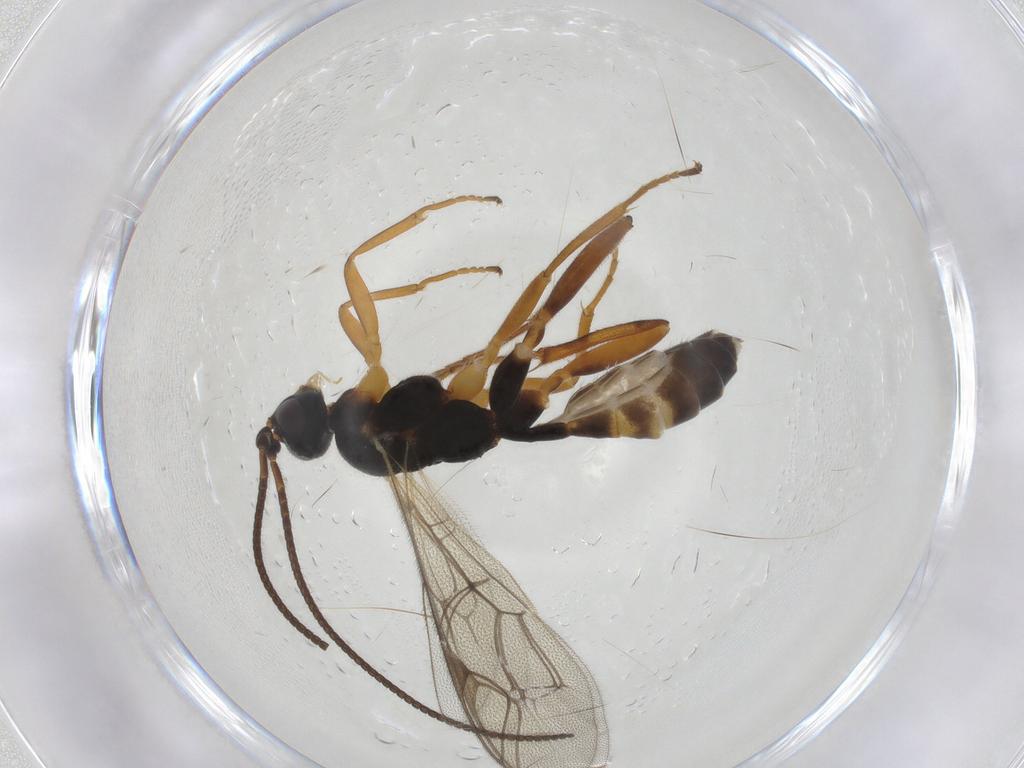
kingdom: Animalia
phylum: Arthropoda
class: Insecta
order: Hymenoptera
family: Ichneumonidae
